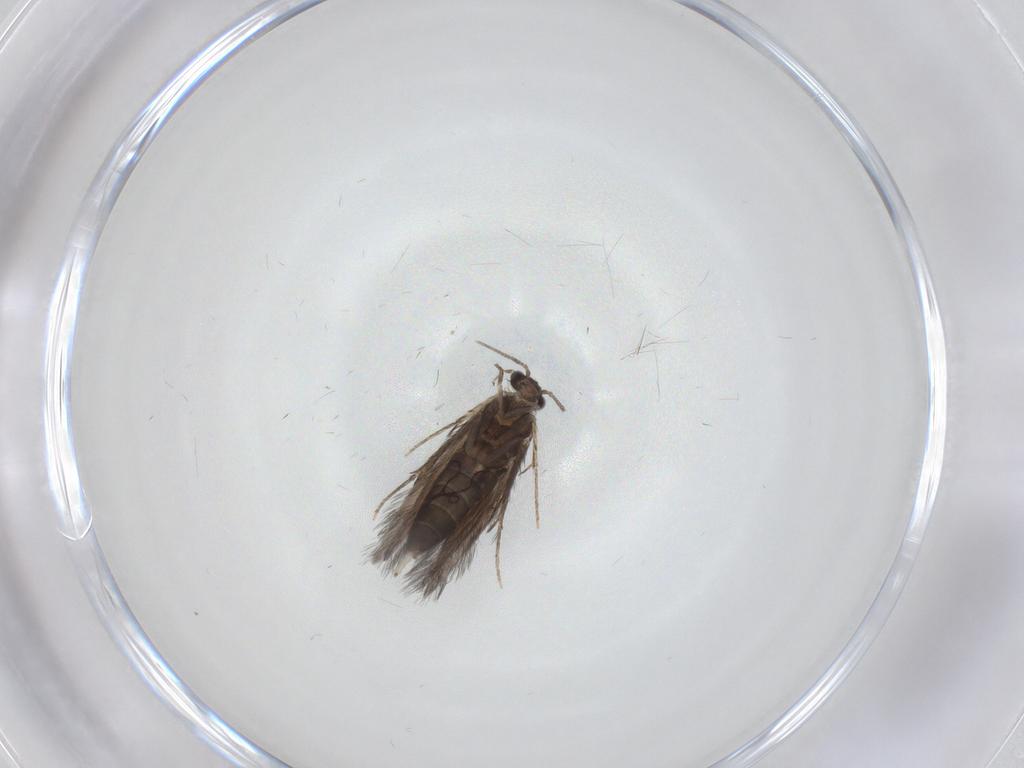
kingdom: Animalia
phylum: Arthropoda
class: Insecta
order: Trichoptera
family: Hydroptilidae
